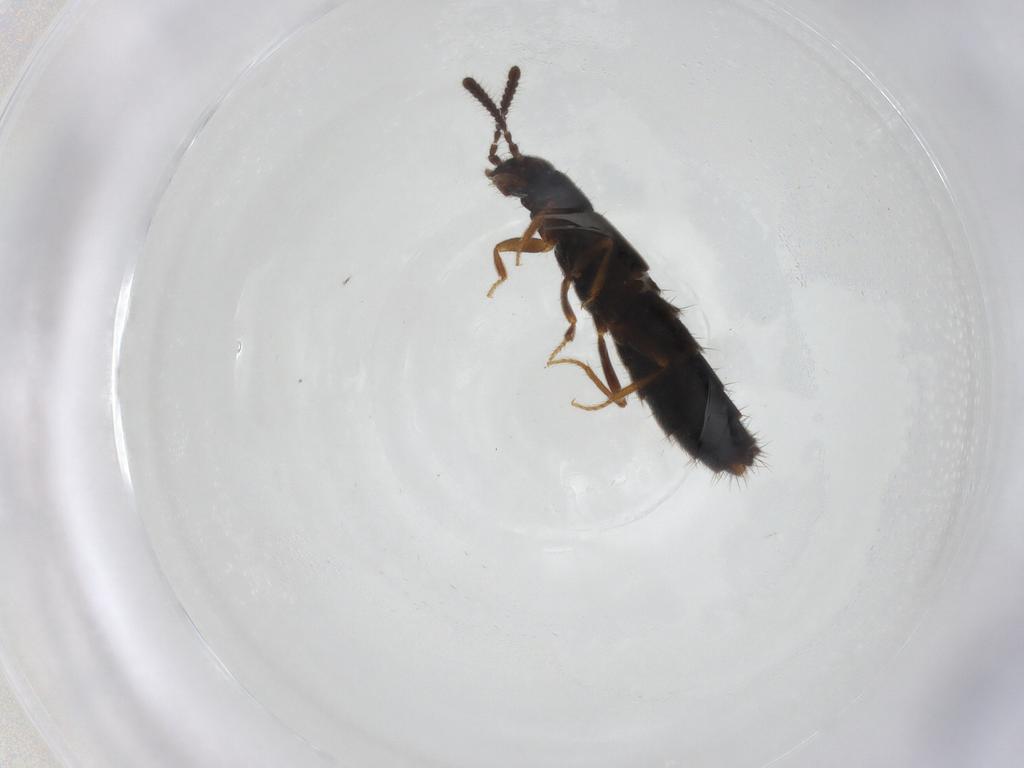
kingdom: Animalia
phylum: Arthropoda
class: Insecta
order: Coleoptera
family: Staphylinidae
